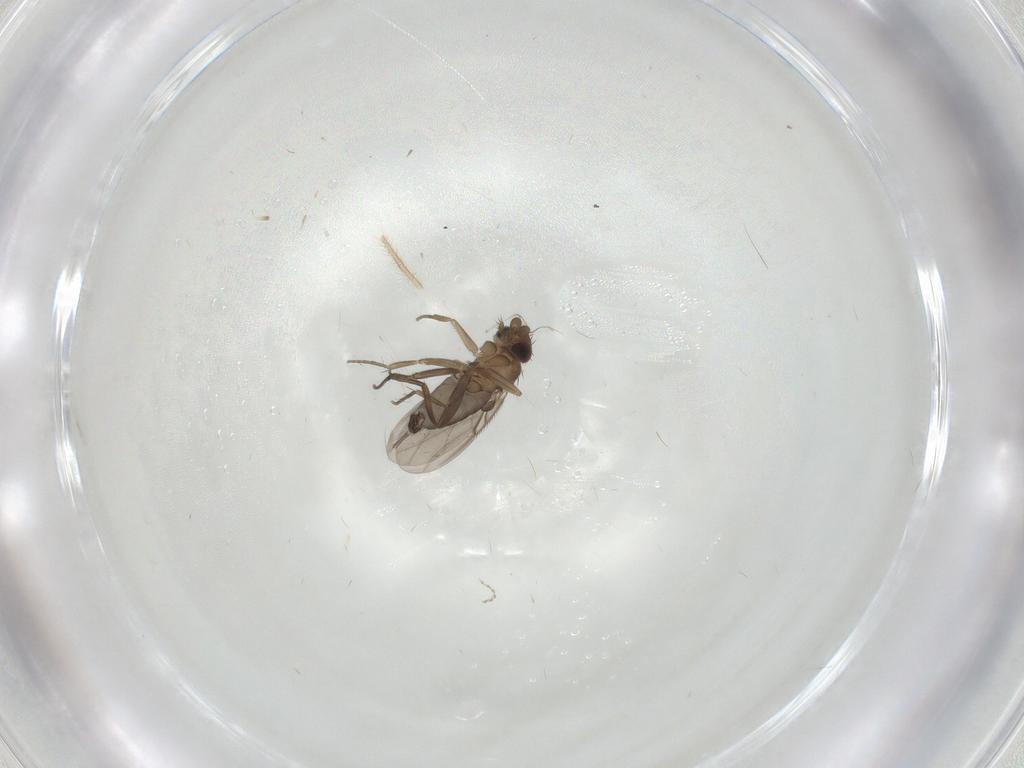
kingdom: Animalia
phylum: Arthropoda
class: Insecta
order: Diptera
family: Phoridae
